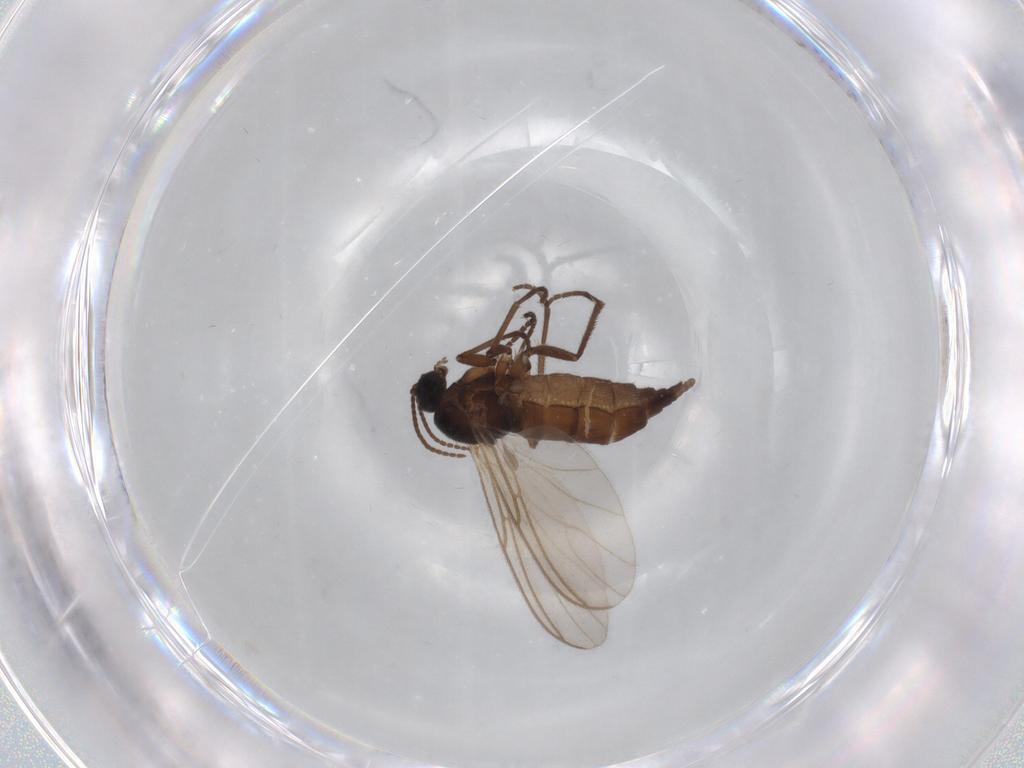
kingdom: Animalia
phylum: Arthropoda
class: Insecta
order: Diptera
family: Sciaridae
